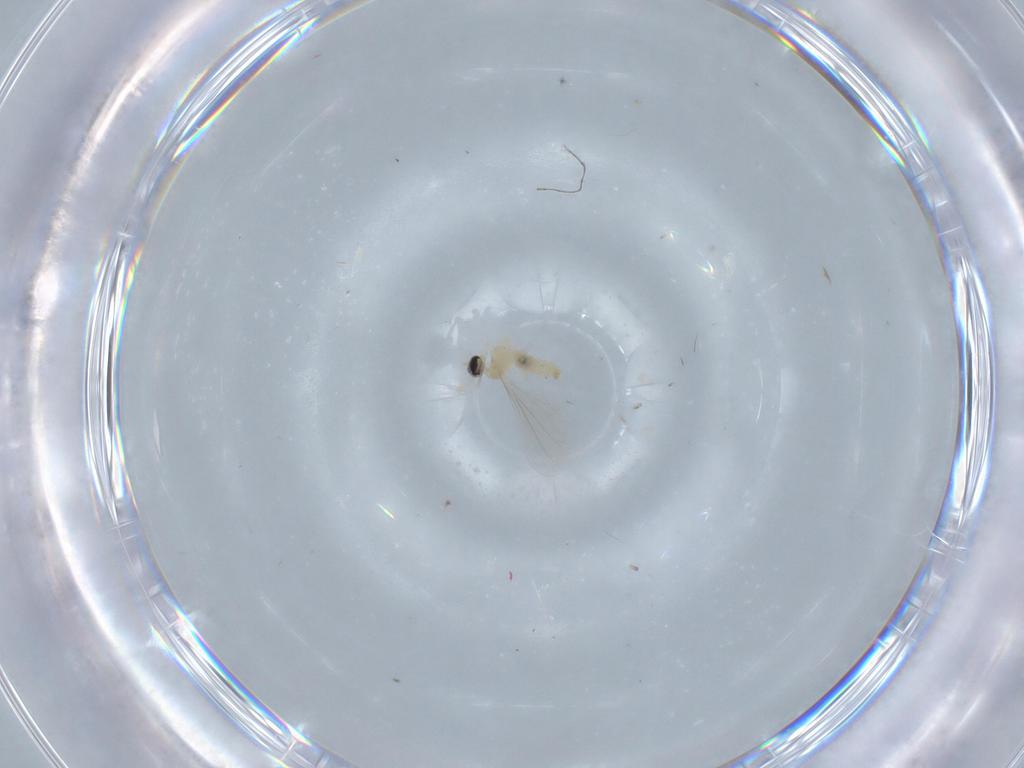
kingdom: Animalia
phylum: Arthropoda
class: Insecta
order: Diptera
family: Cecidomyiidae
